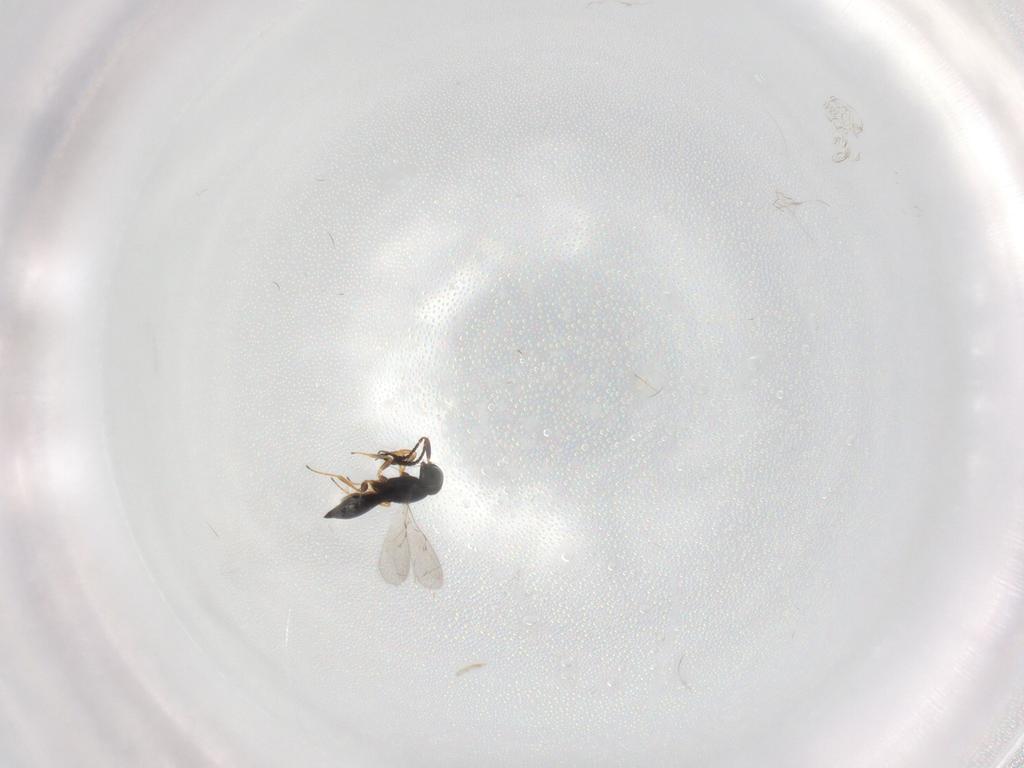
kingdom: Animalia
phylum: Arthropoda
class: Insecta
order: Hymenoptera
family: Scelionidae
